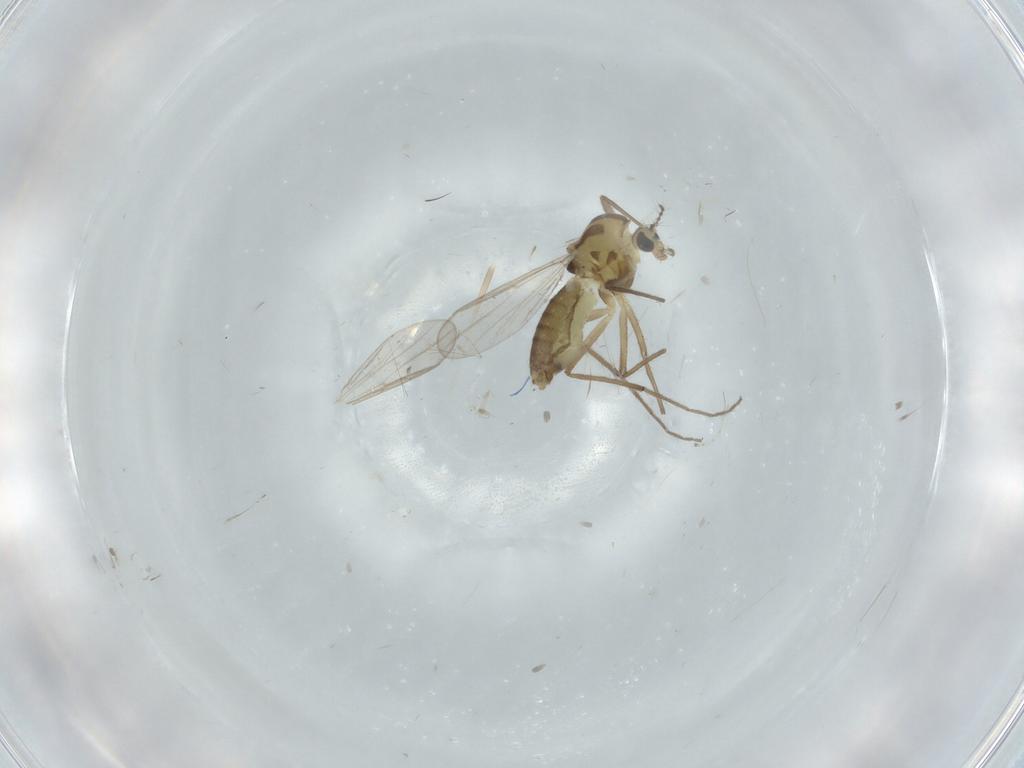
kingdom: Animalia
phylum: Arthropoda
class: Insecta
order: Diptera
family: Chironomidae
